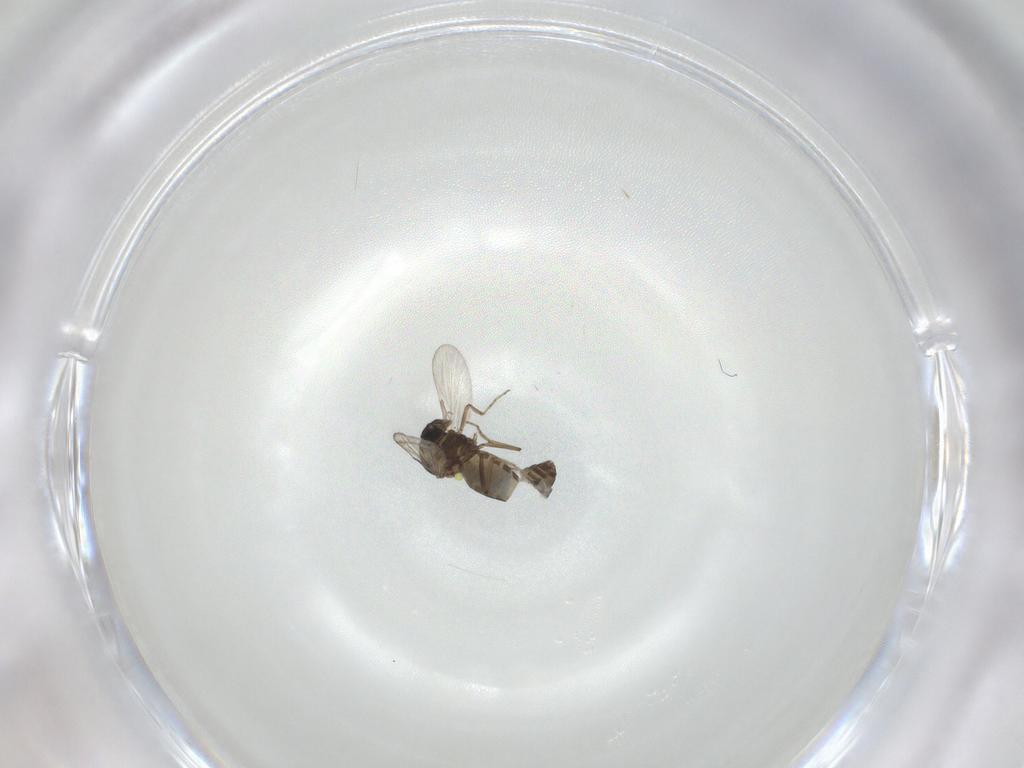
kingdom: Animalia
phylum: Arthropoda
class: Insecta
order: Diptera
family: Ceratopogonidae
